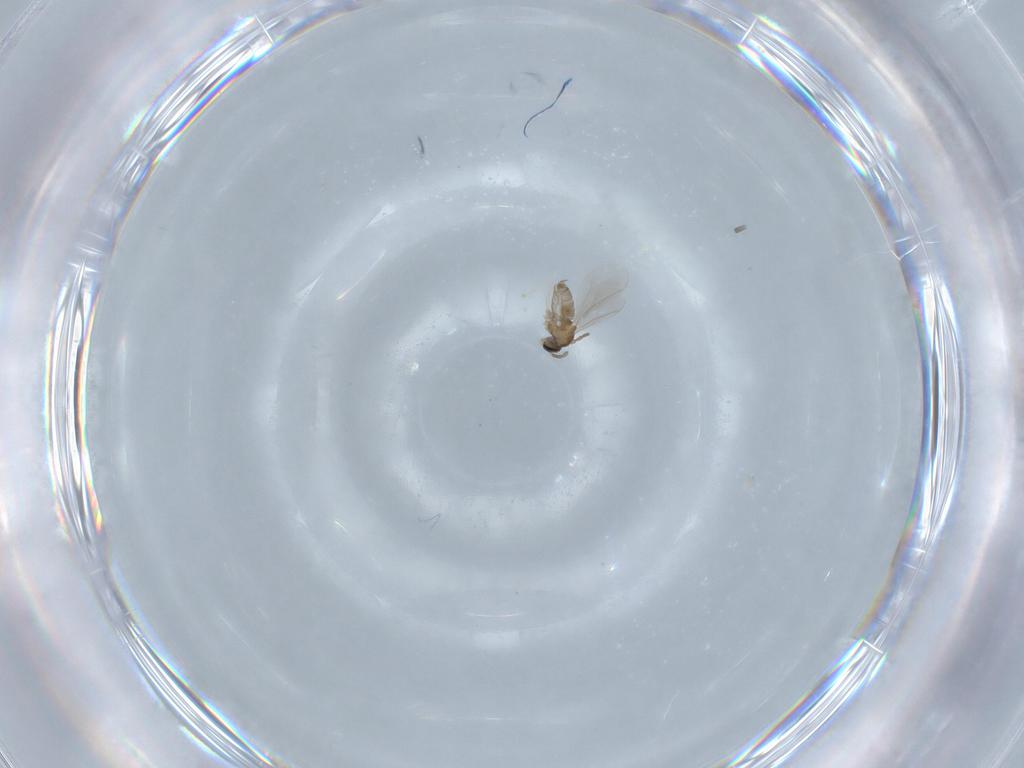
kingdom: Animalia
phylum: Arthropoda
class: Insecta
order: Diptera
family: Cecidomyiidae
